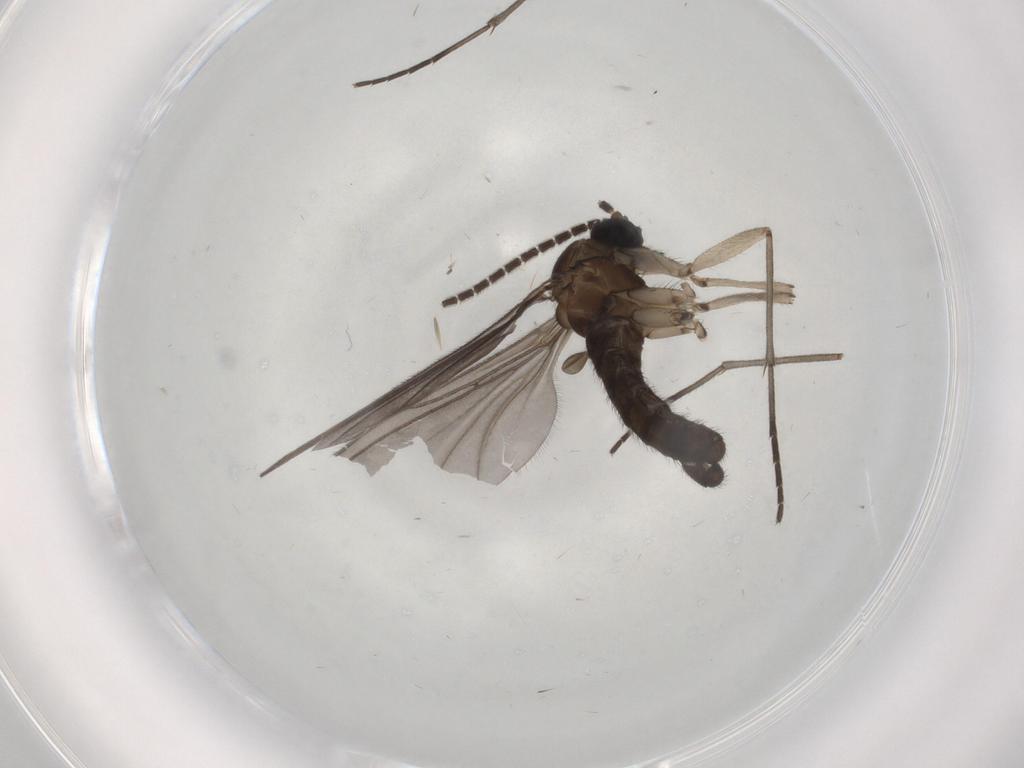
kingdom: Animalia
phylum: Arthropoda
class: Insecta
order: Diptera
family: Sciaridae
